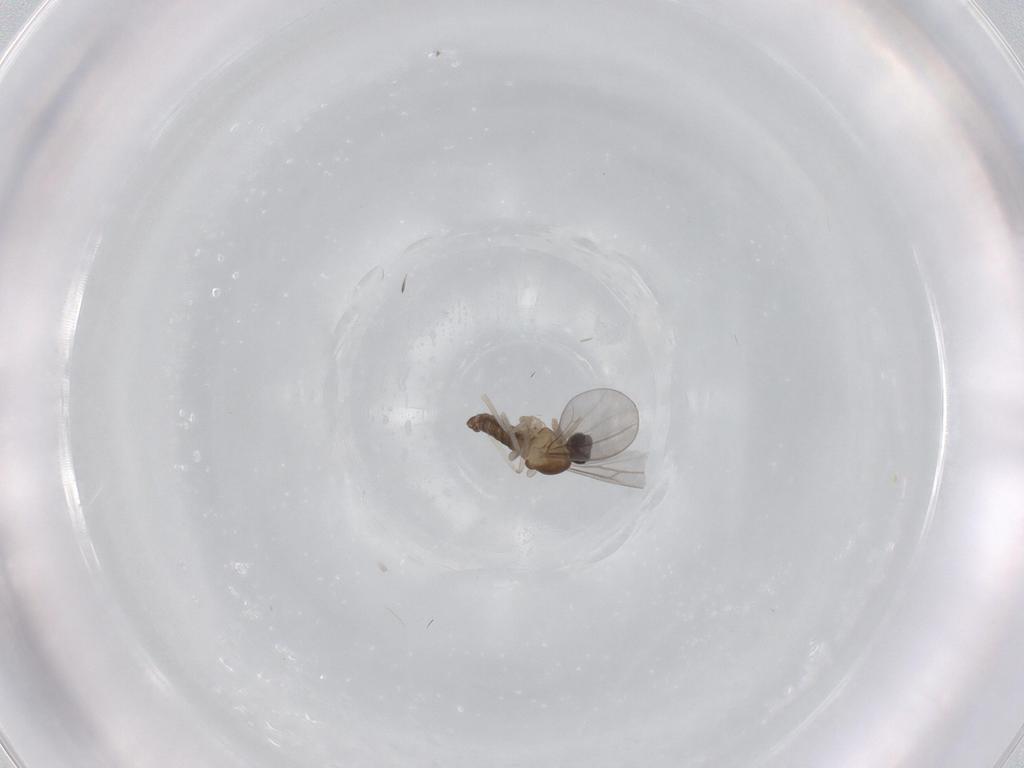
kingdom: Animalia
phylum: Arthropoda
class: Insecta
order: Diptera
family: Cecidomyiidae
